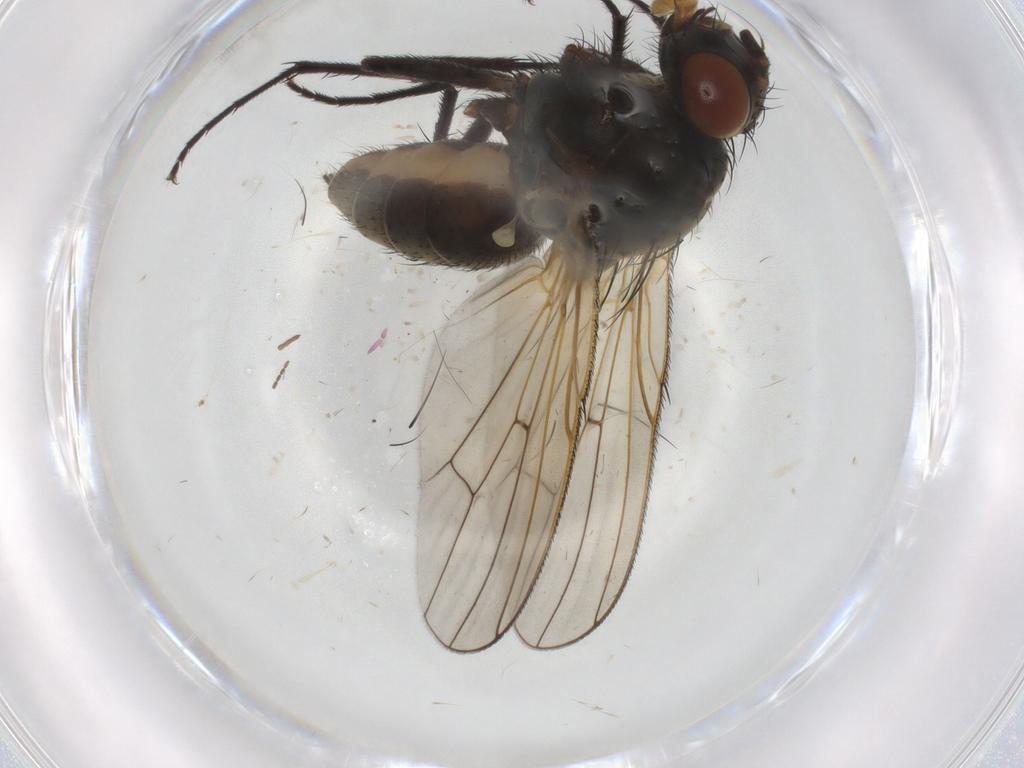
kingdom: Animalia
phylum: Arthropoda
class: Insecta
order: Diptera
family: Anthomyiidae
